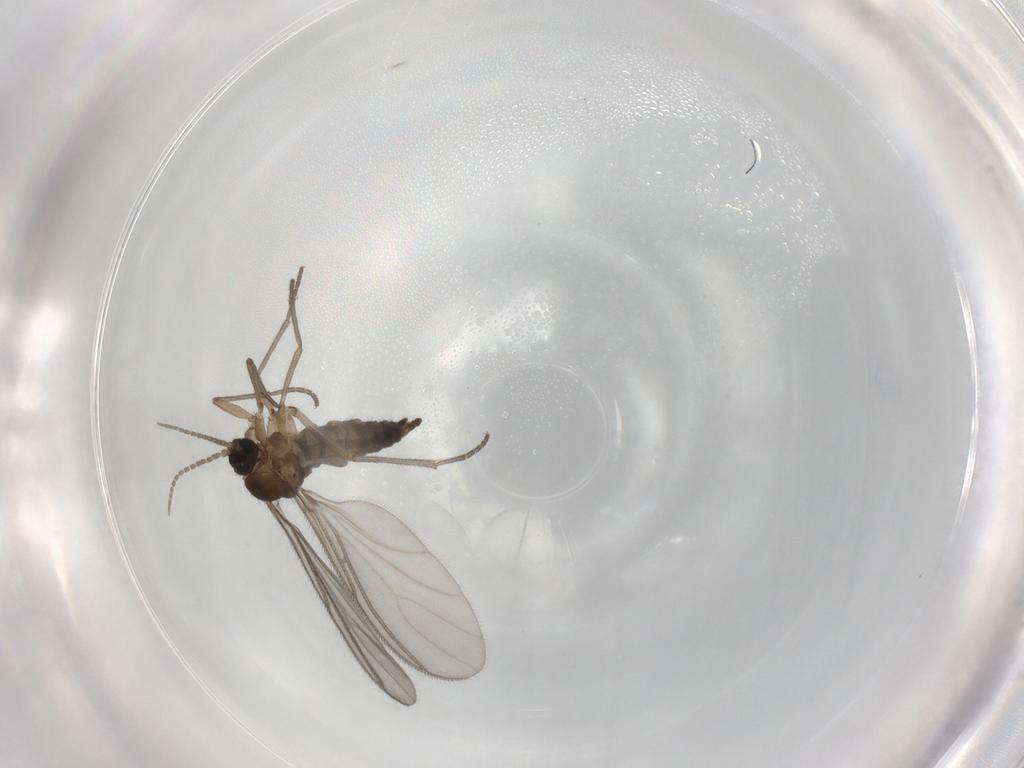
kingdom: Animalia
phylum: Arthropoda
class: Insecta
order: Diptera
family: Sciaridae
